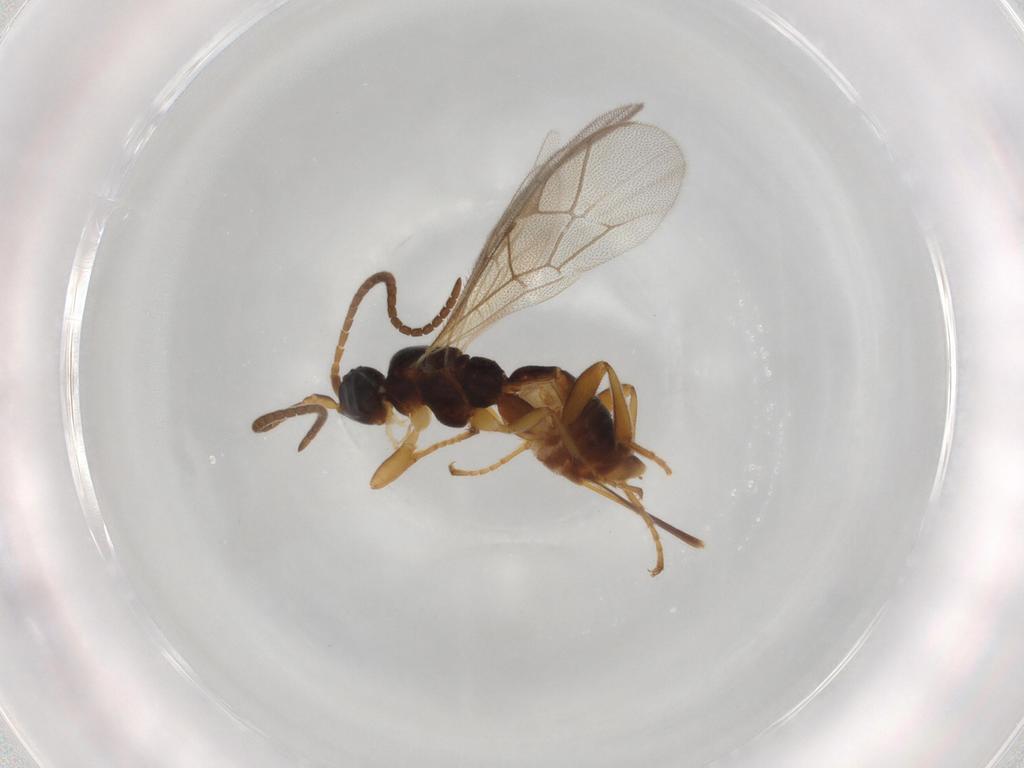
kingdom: Animalia
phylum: Arthropoda
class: Insecta
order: Hymenoptera
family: Ichneumonidae
